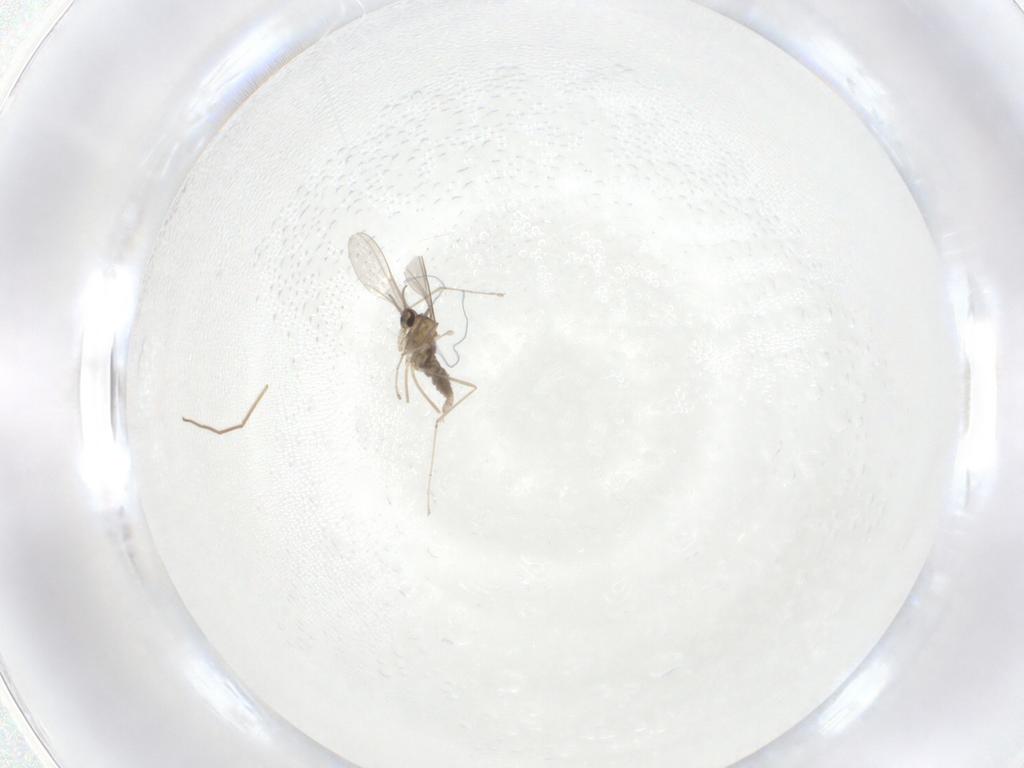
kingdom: Animalia
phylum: Arthropoda
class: Insecta
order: Diptera
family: Cecidomyiidae
